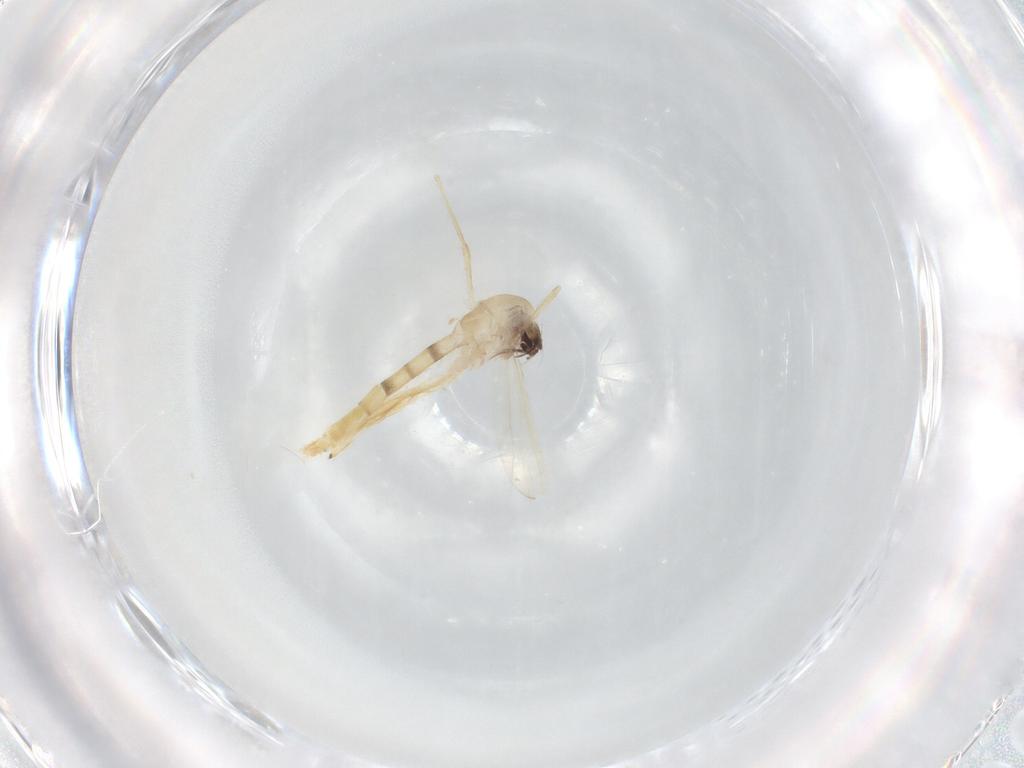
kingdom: Animalia
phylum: Arthropoda
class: Insecta
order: Diptera
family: Chironomidae
